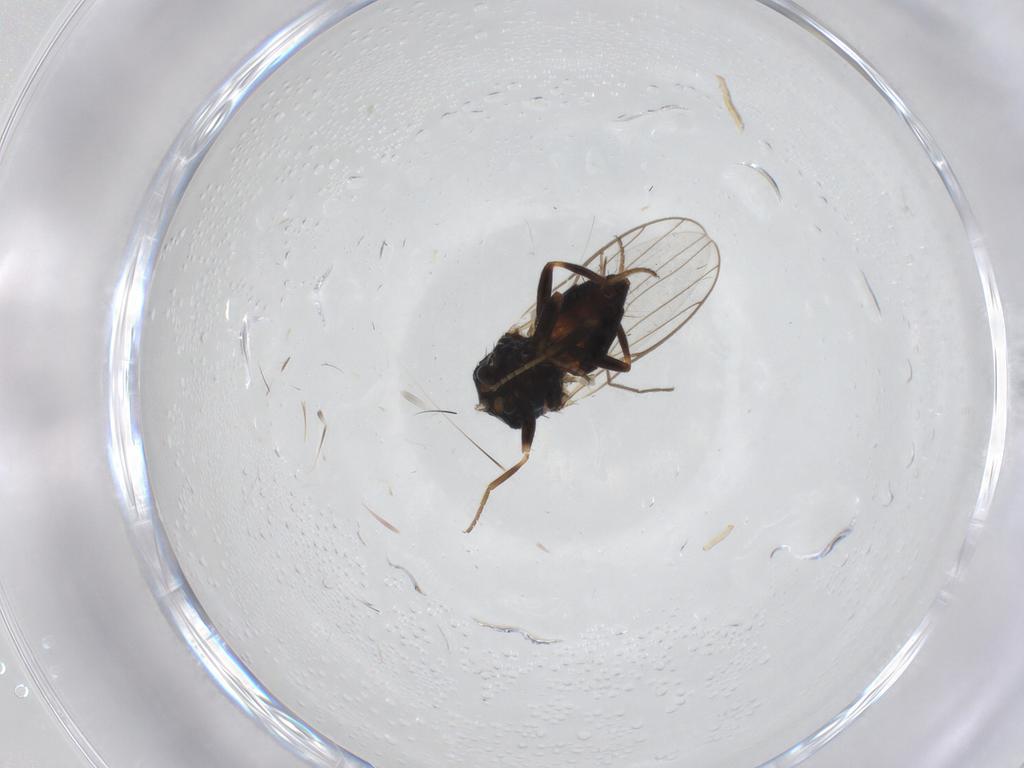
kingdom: Animalia
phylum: Arthropoda
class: Insecta
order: Diptera
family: Chloropidae
